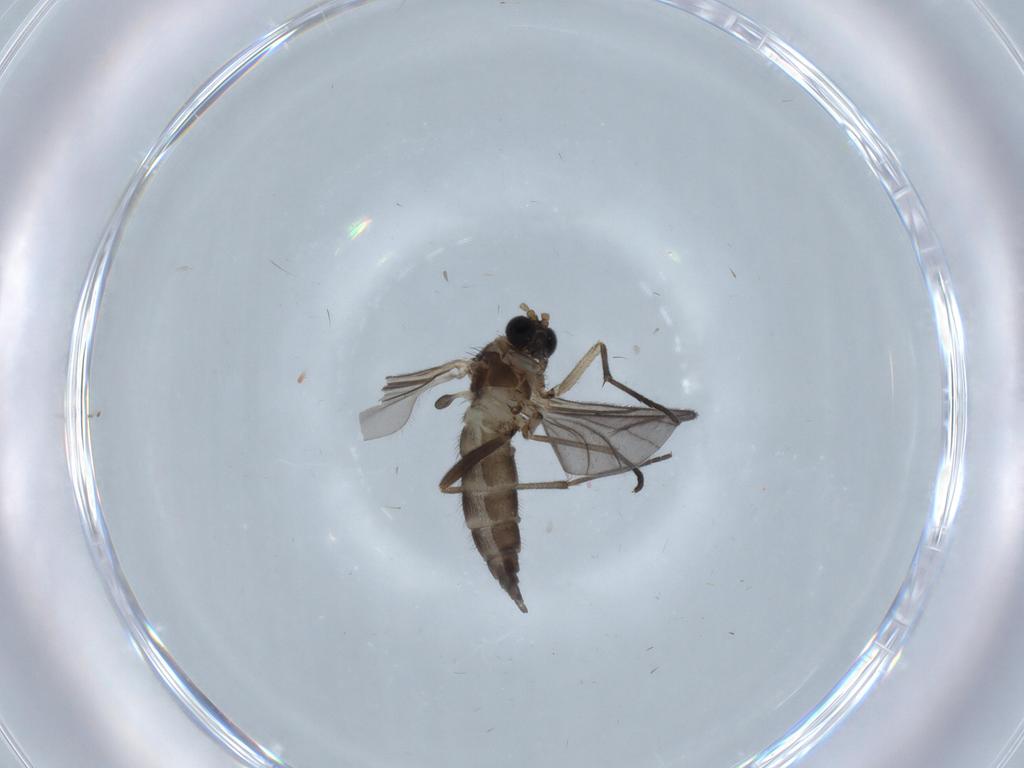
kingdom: Animalia
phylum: Arthropoda
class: Insecta
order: Diptera
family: Sciaridae
